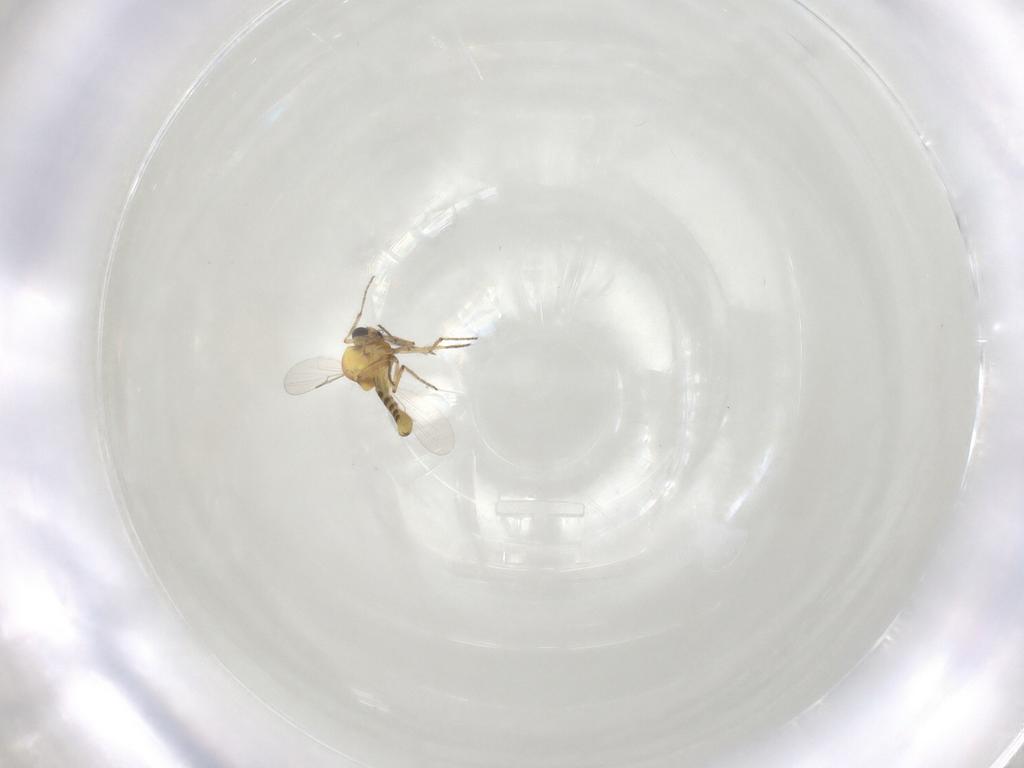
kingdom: Animalia
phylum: Arthropoda
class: Insecta
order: Diptera
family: Ceratopogonidae
